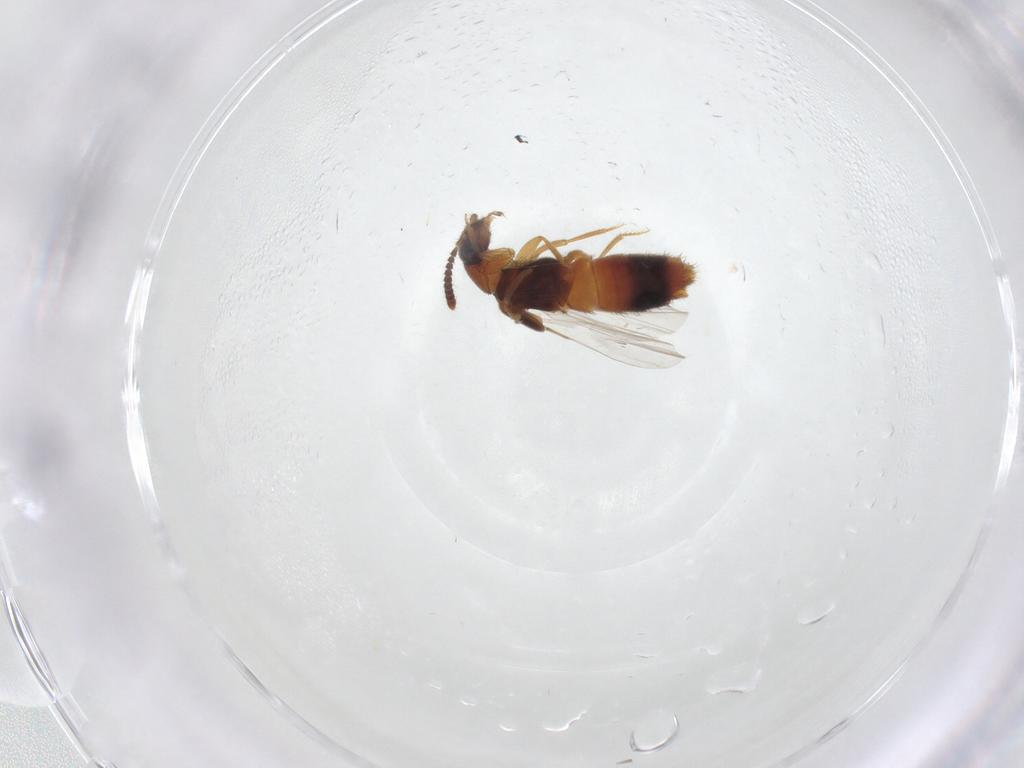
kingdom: Animalia
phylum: Arthropoda
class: Insecta
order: Coleoptera
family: Staphylinidae
